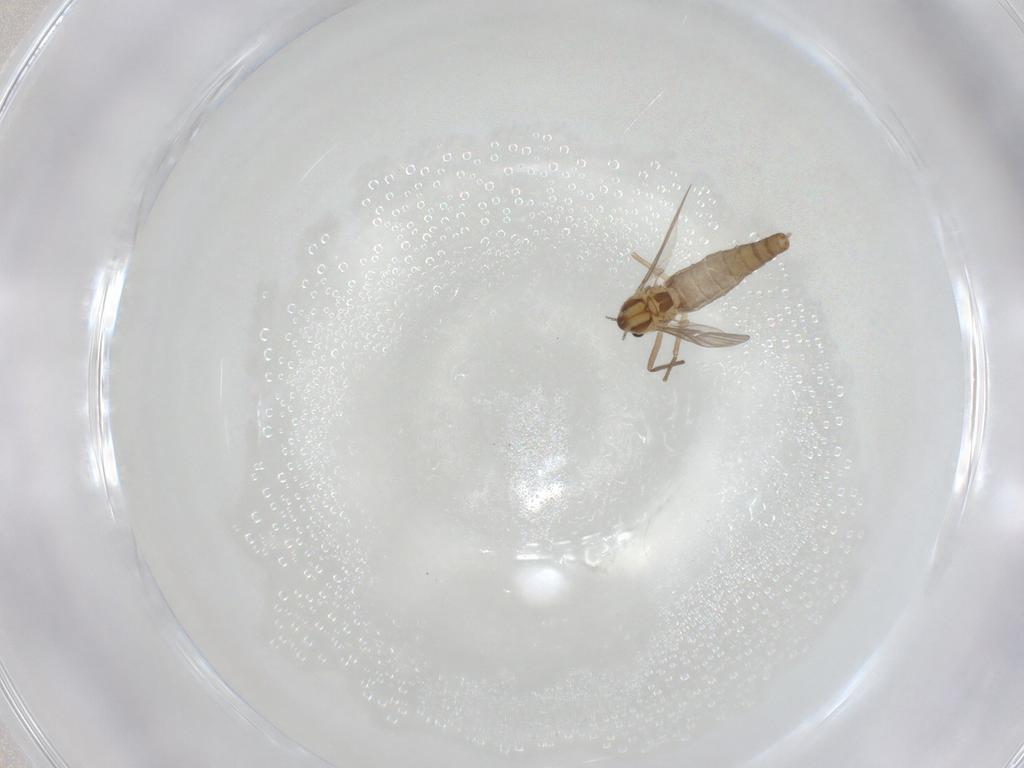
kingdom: Animalia
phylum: Arthropoda
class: Insecta
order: Diptera
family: Chironomidae
